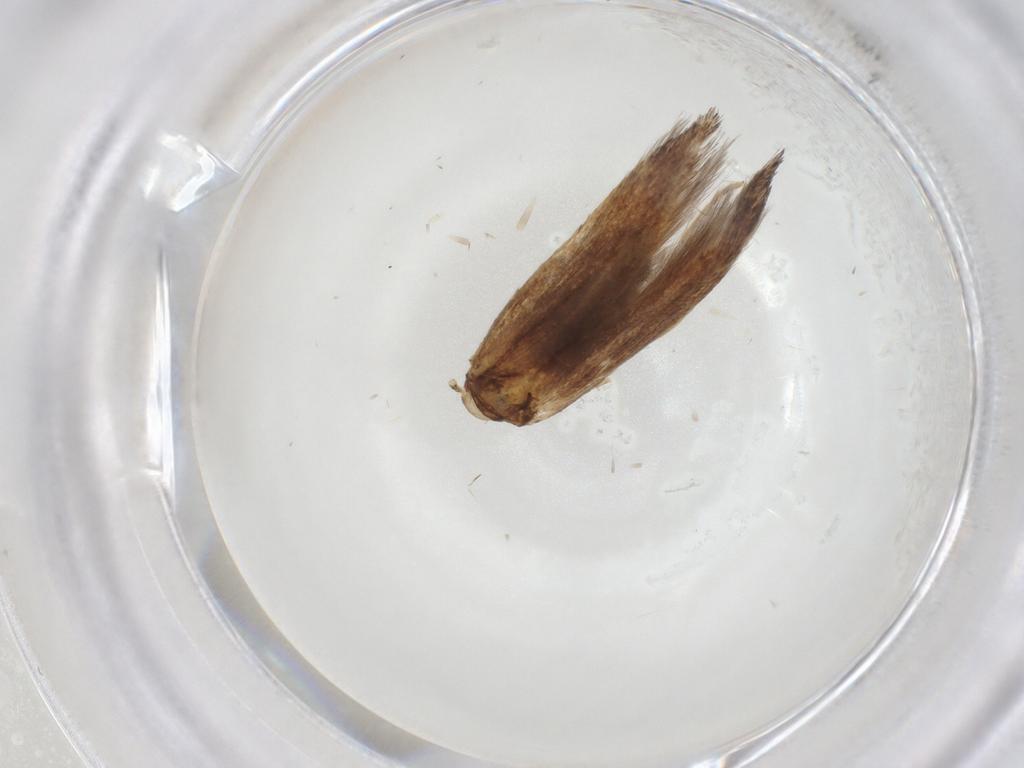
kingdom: Animalia
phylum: Arthropoda
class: Insecta
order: Lepidoptera
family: Cosmopterigidae
